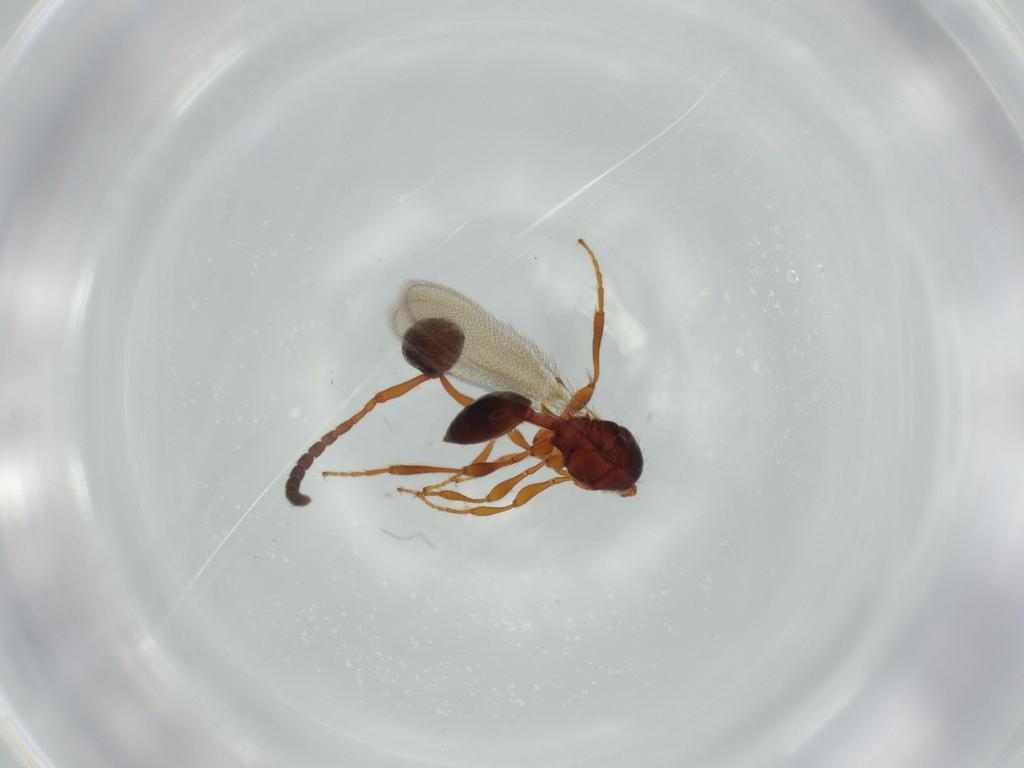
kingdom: Animalia
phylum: Arthropoda
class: Insecta
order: Hymenoptera
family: Diapriidae
